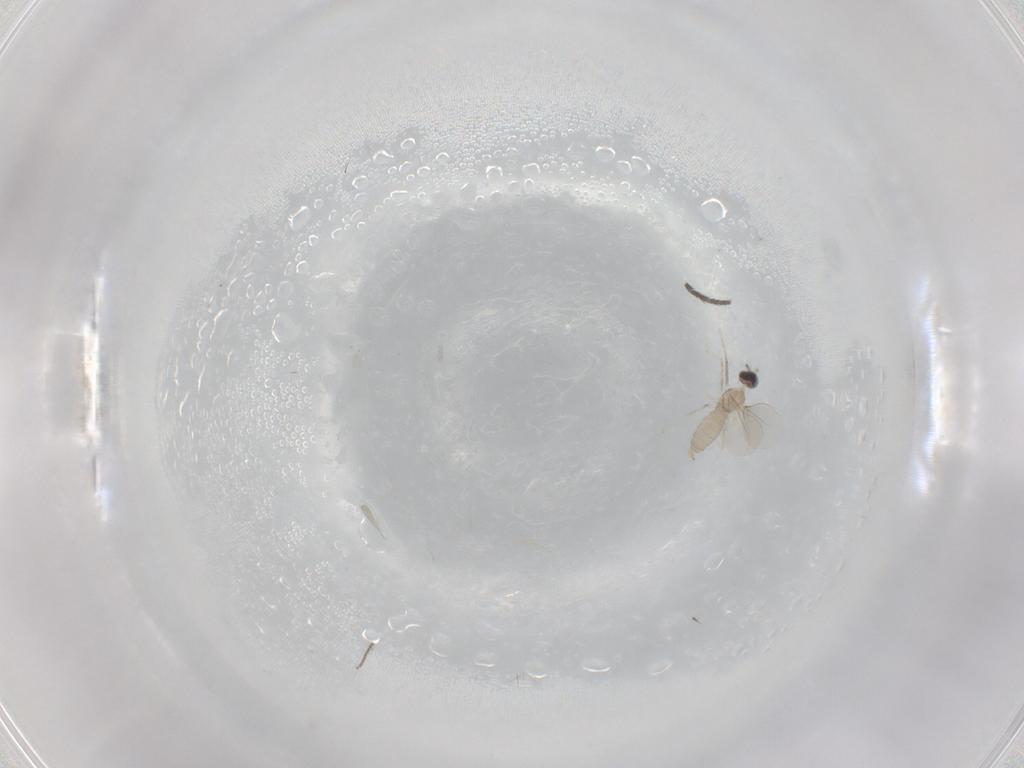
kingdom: Animalia
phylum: Arthropoda
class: Insecta
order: Diptera
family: Cecidomyiidae
